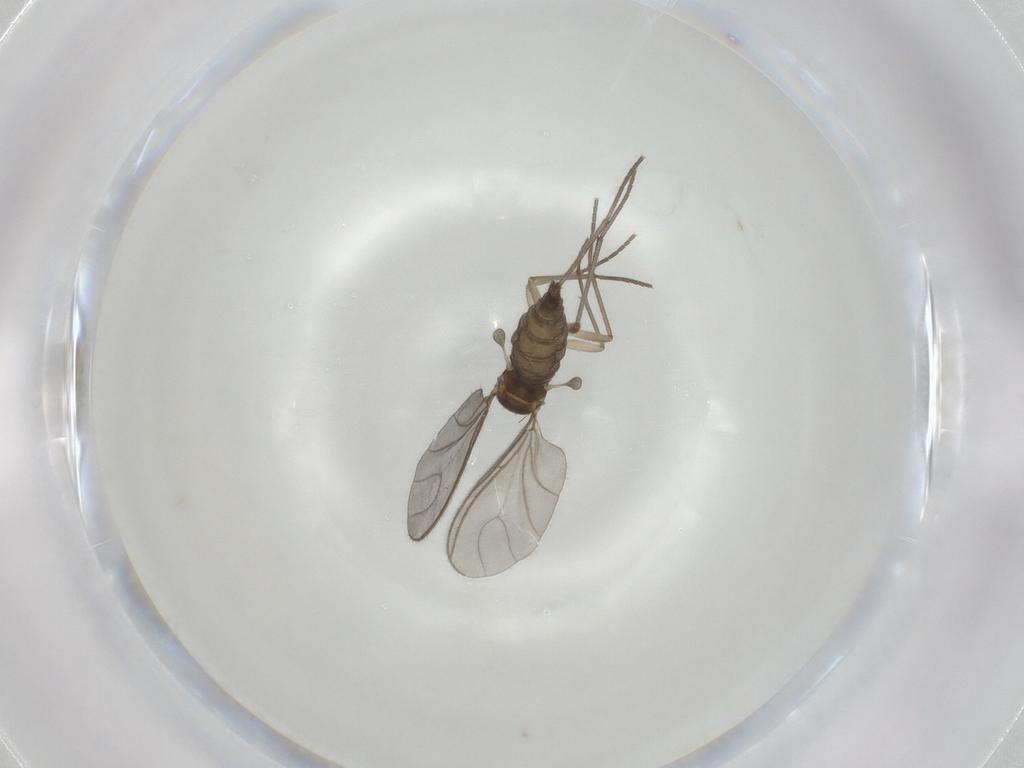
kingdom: Animalia
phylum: Arthropoda
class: Insecta
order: Diptera
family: Sciaridae
